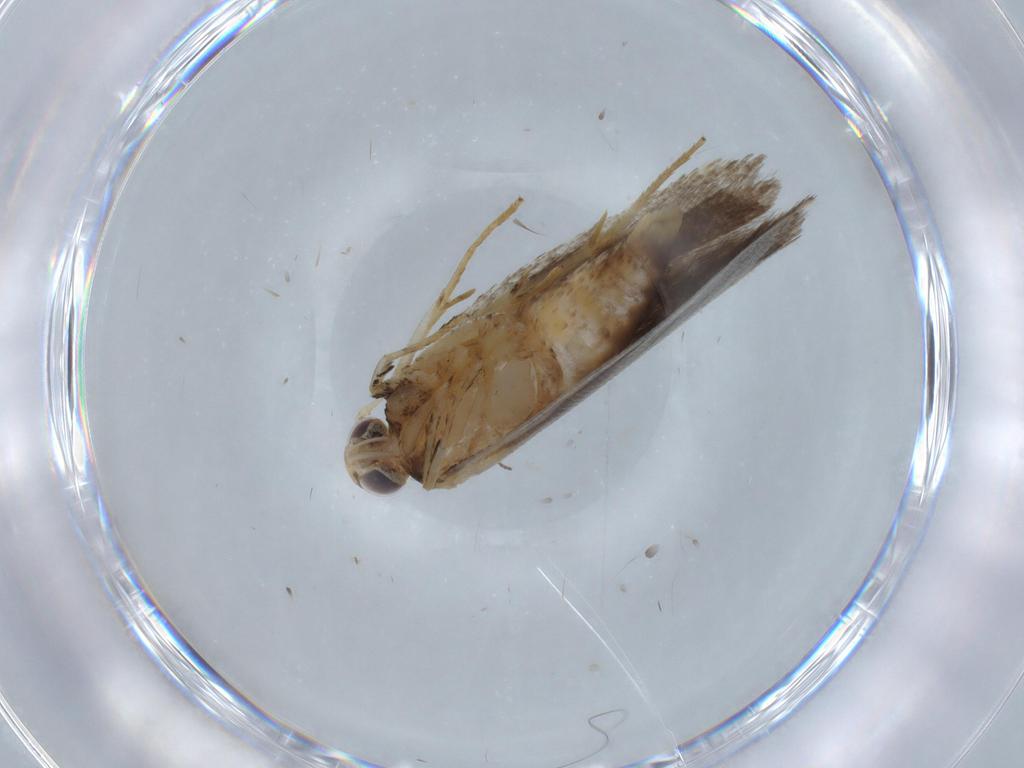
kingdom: Animalia
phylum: Arthropoda
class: Insecta
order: Lepidoptera
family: Gelechiidae
